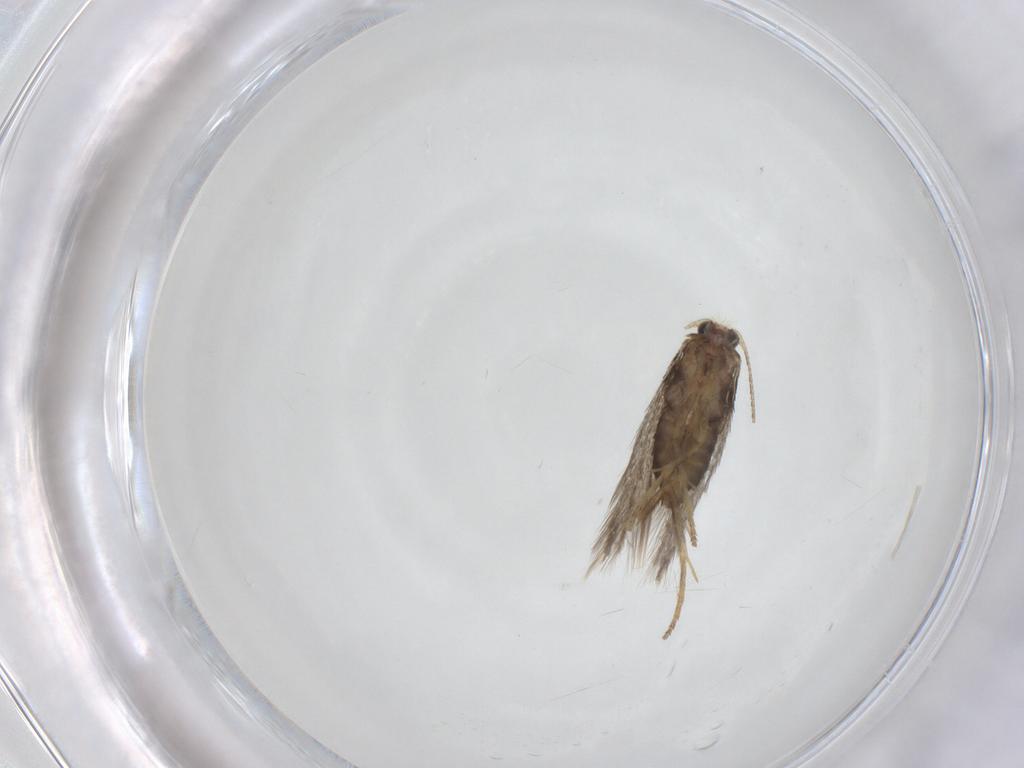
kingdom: Animalia
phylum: Arthropoda
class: Insecta
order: Lepidoptera
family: Nepticulidae
